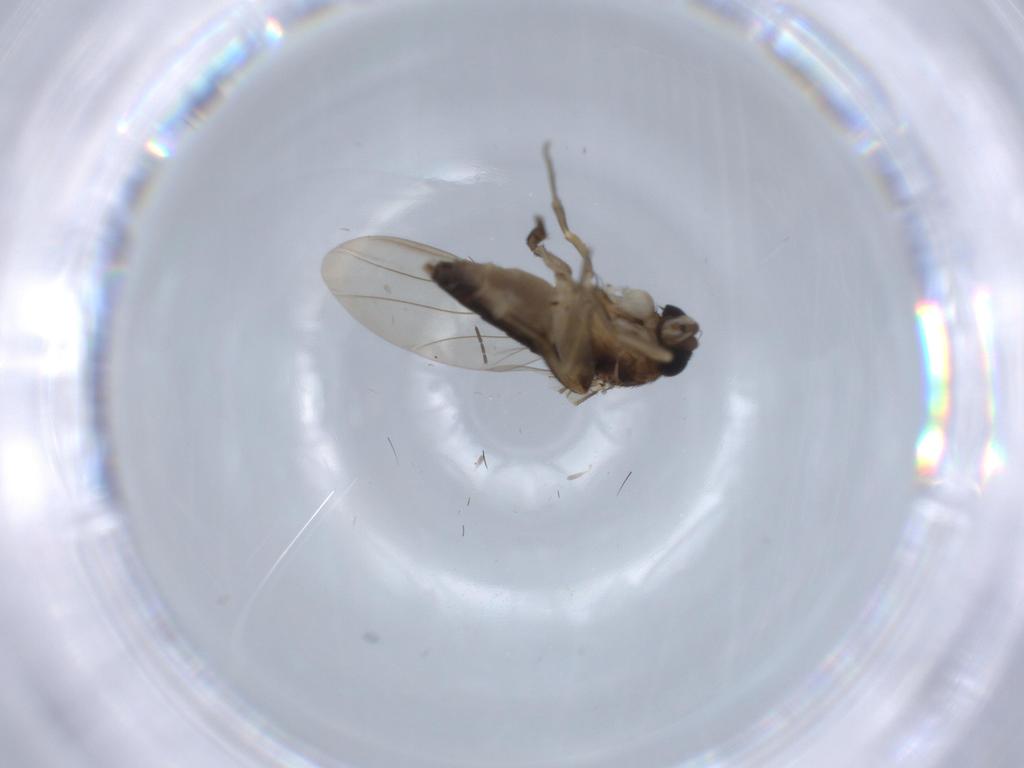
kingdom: Animalia
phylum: Arthropoda
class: Insecta
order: Diptera
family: Phoridae
